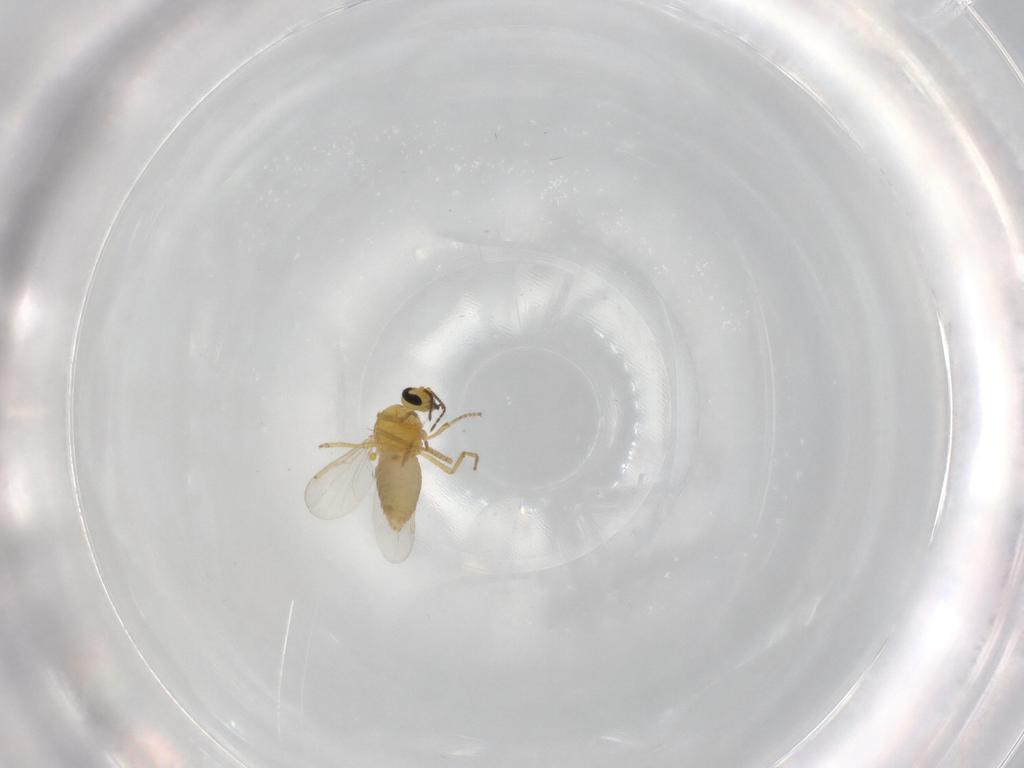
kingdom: Animalia
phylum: Arthropoda
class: Insecta
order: Diptera
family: Ceratopogonidae
